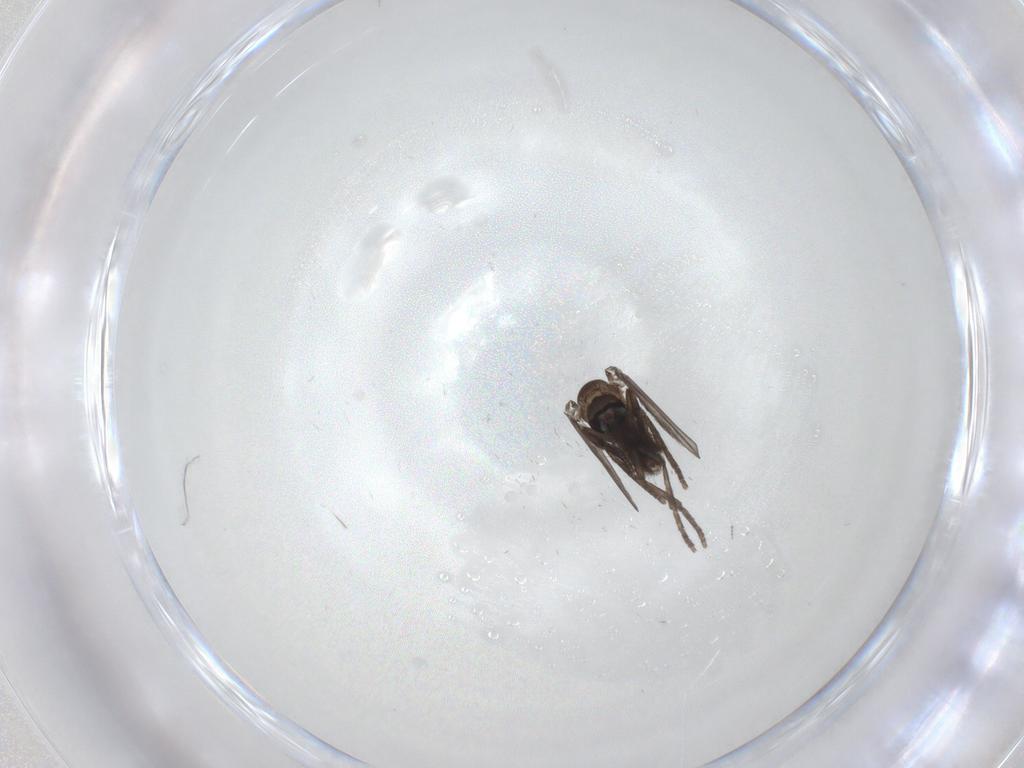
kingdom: Animalia
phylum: Arthropoda
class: Insecta
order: Diptera
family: Psychodidae
